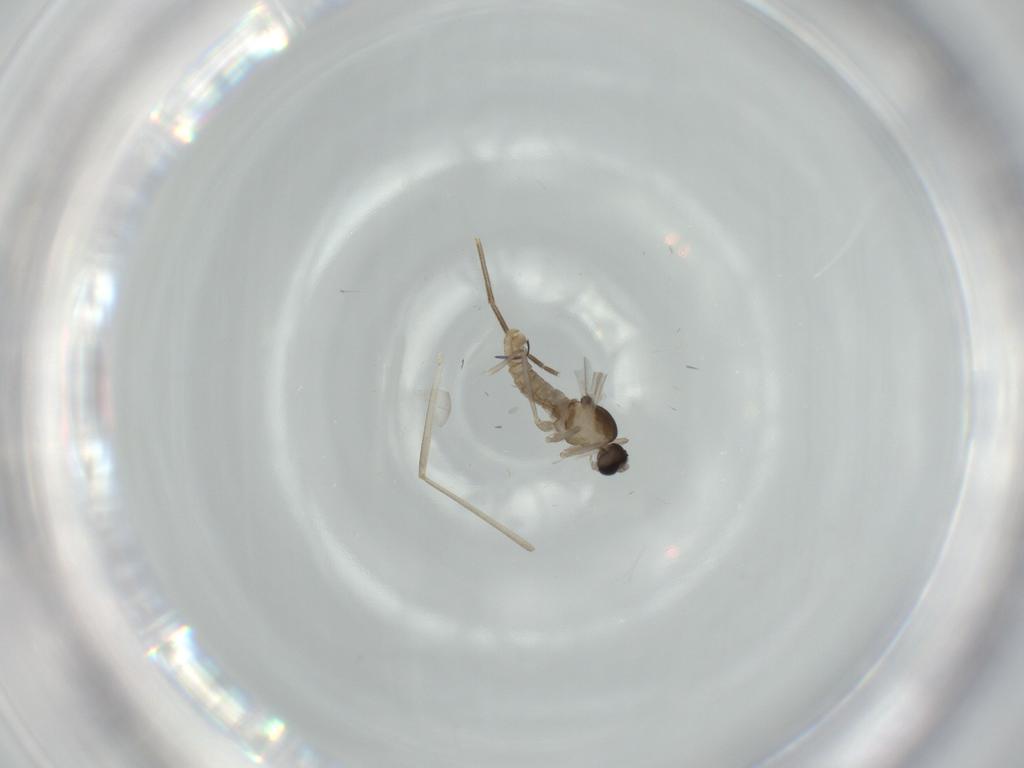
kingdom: Animalia
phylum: Arthropoda
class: Insecta
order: Diptera
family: Cecidomyiidae
